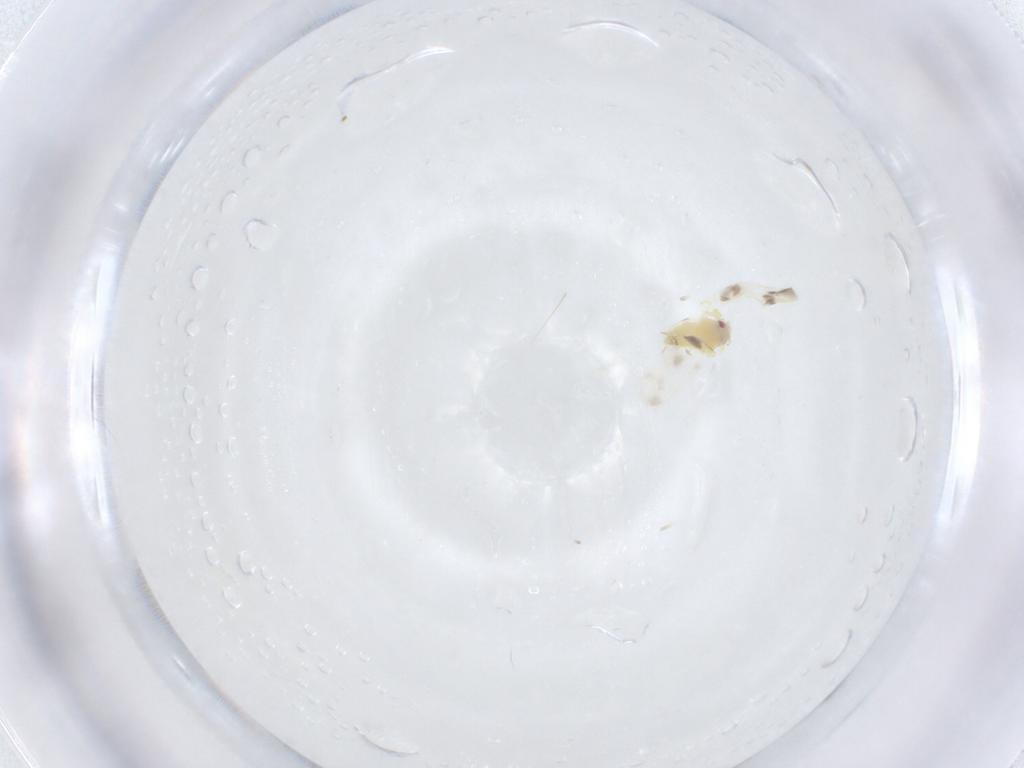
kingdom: Animalia
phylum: Arthropoda
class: Insecta
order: Hemiptera
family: Aleyrodidae
